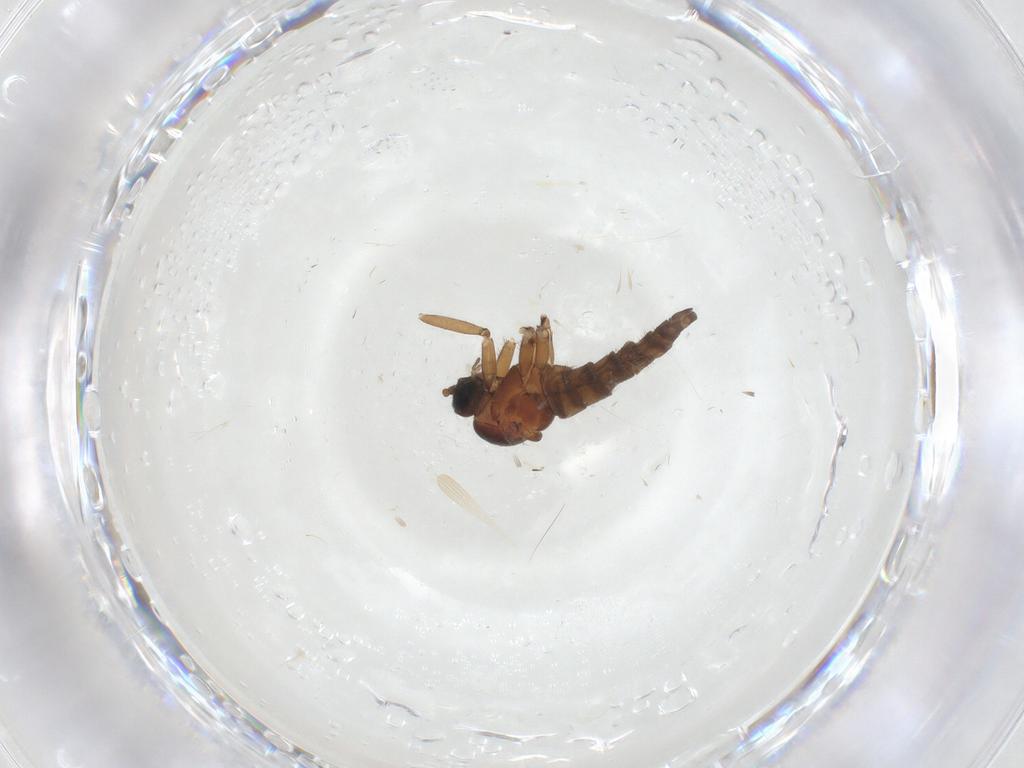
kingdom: Animalia
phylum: Arthropoda
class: Insecta
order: Diptera
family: Sciaridae
